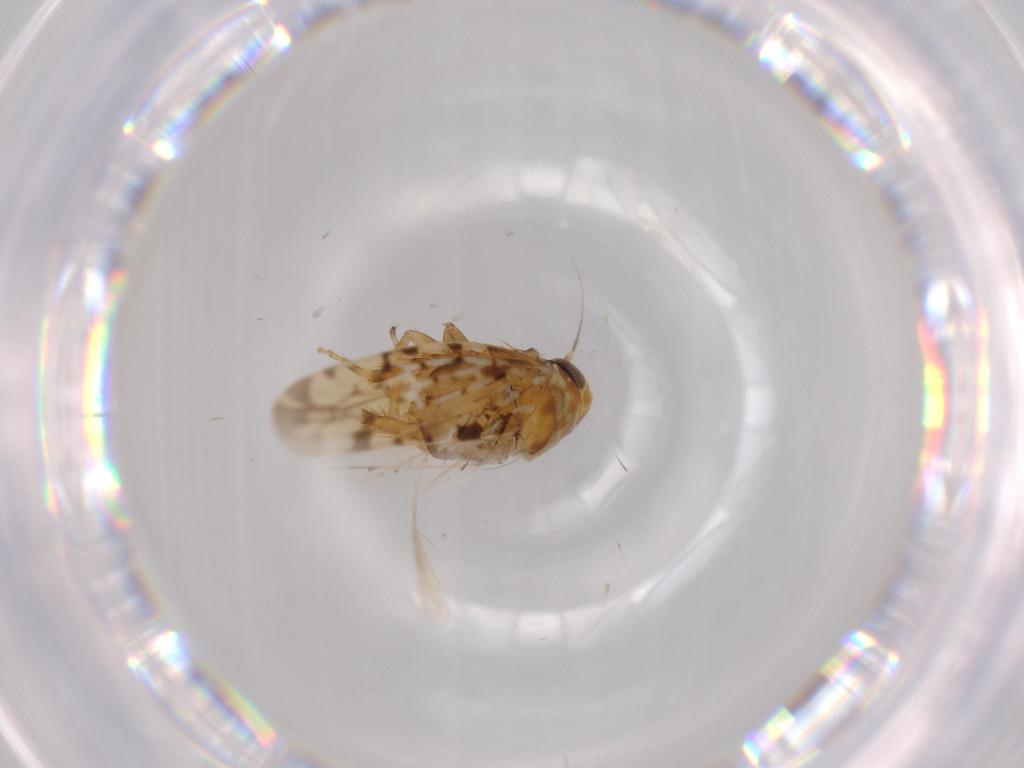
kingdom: Animalia
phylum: Arthropoda
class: Insecta
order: Hemiptera
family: Cicadellidae
